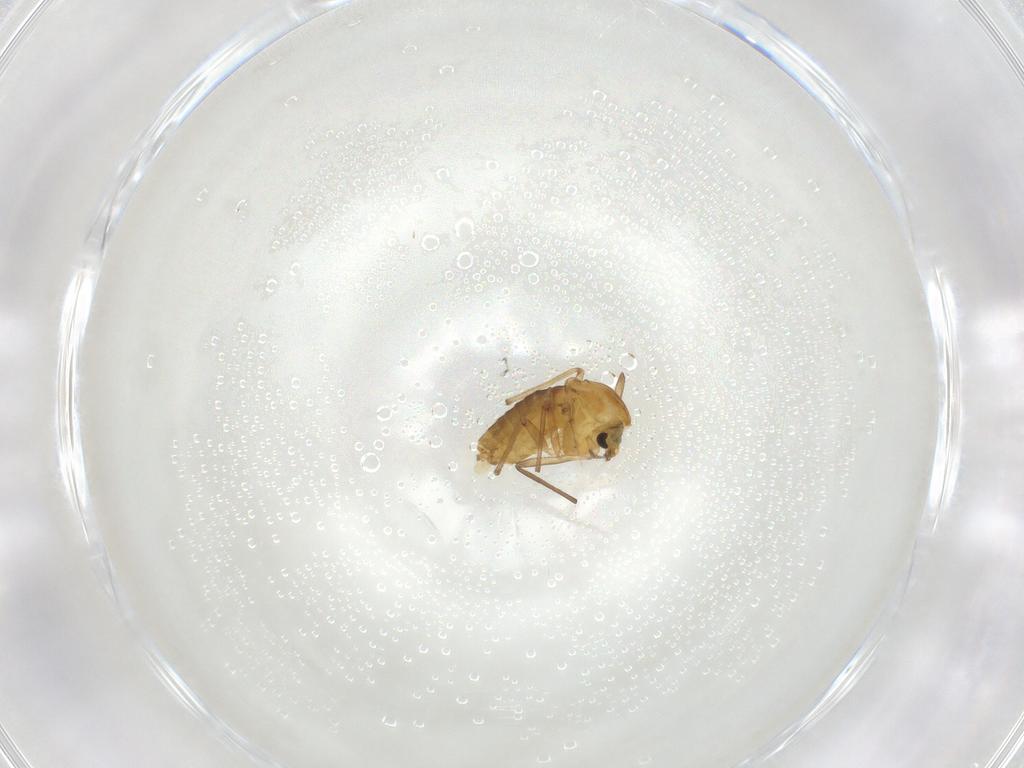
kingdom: Animalia
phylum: Arthropoda
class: Insecta
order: Diptera
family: Chironomidae
